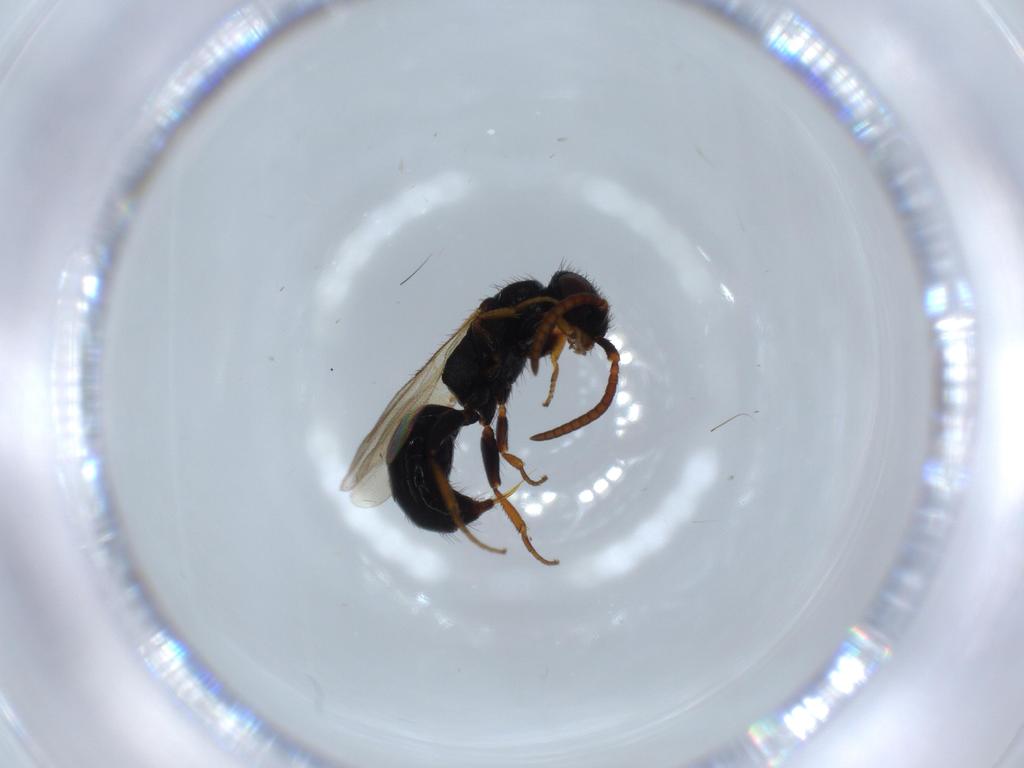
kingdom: Animalia
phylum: Arthropoda
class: Insecta
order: Hymenoptera
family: Bethylidae
